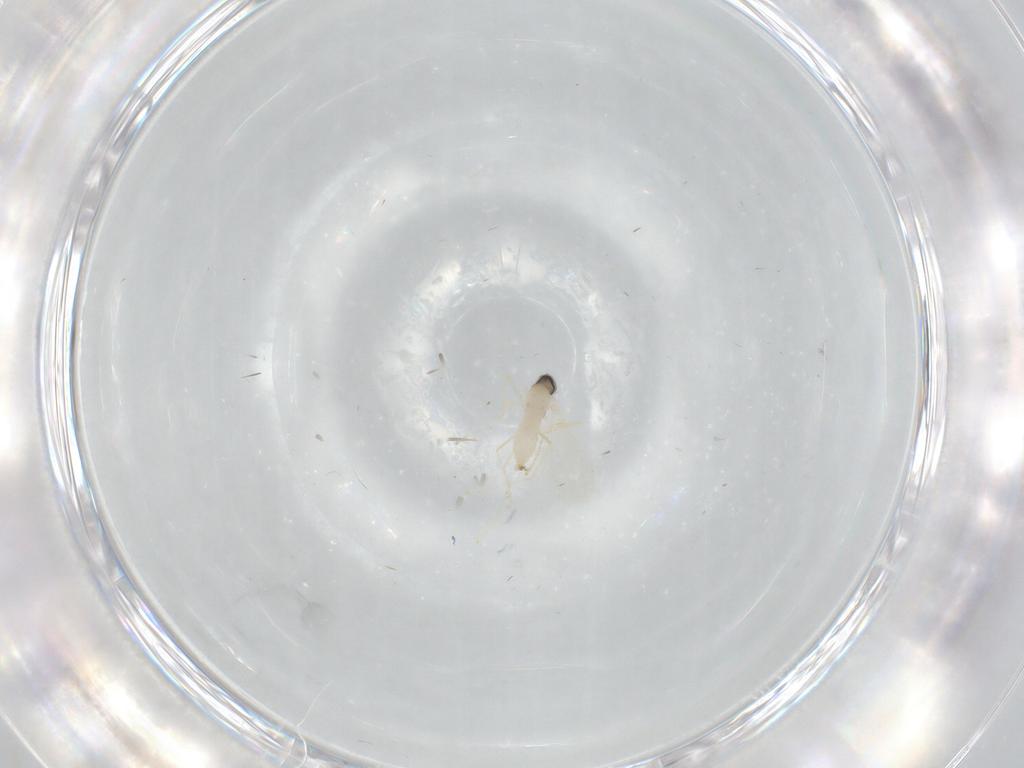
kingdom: Animalia
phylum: Arthropoda
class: Insecta
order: Diptera
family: Cecidomyiidae
